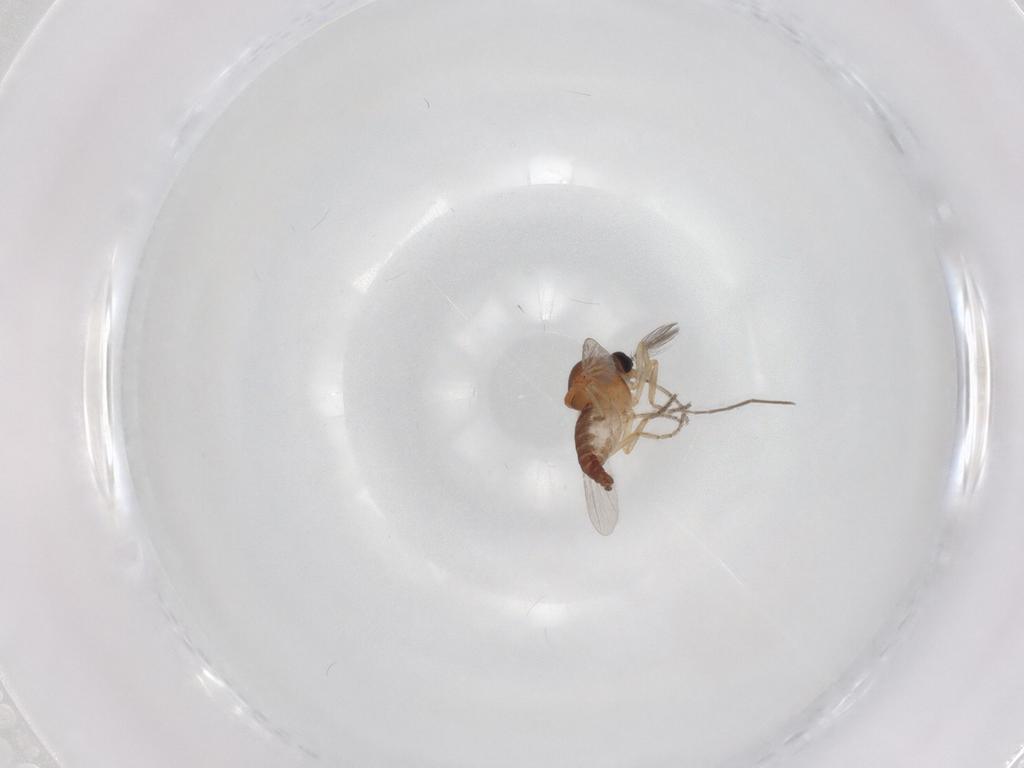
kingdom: Animalia
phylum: Arthropoda
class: Insecta
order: Diptera
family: Ceratopogonidae
